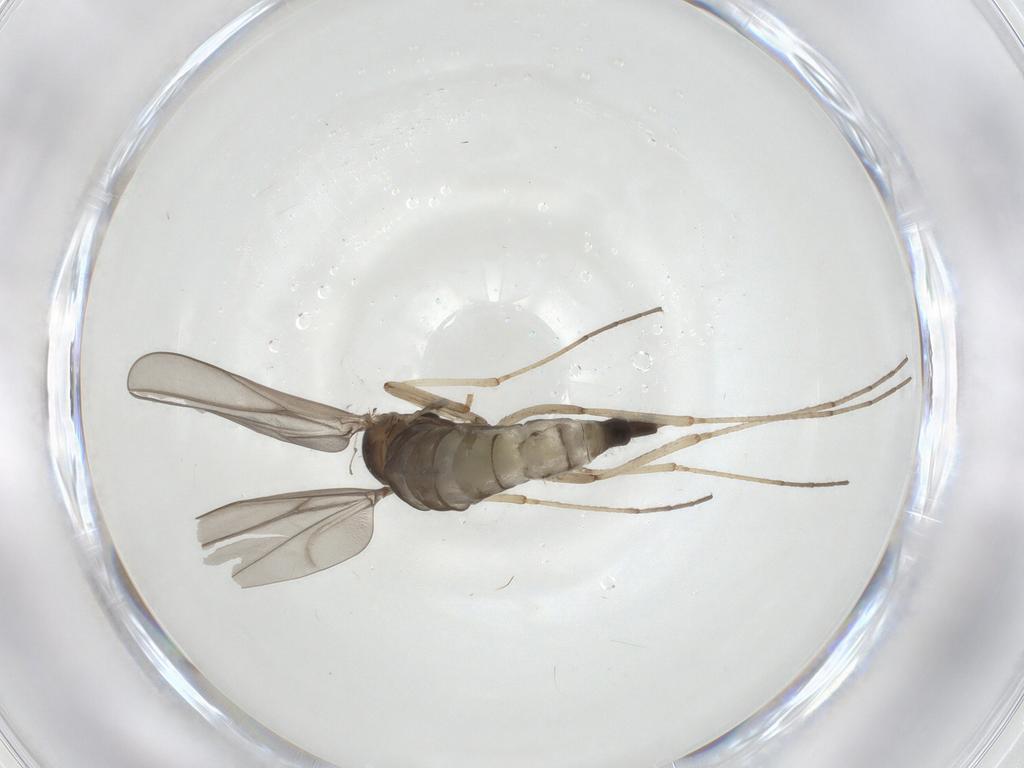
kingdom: Animalia
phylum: Arthropoda
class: Insecta
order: Diptera
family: Cecidomyiidae
